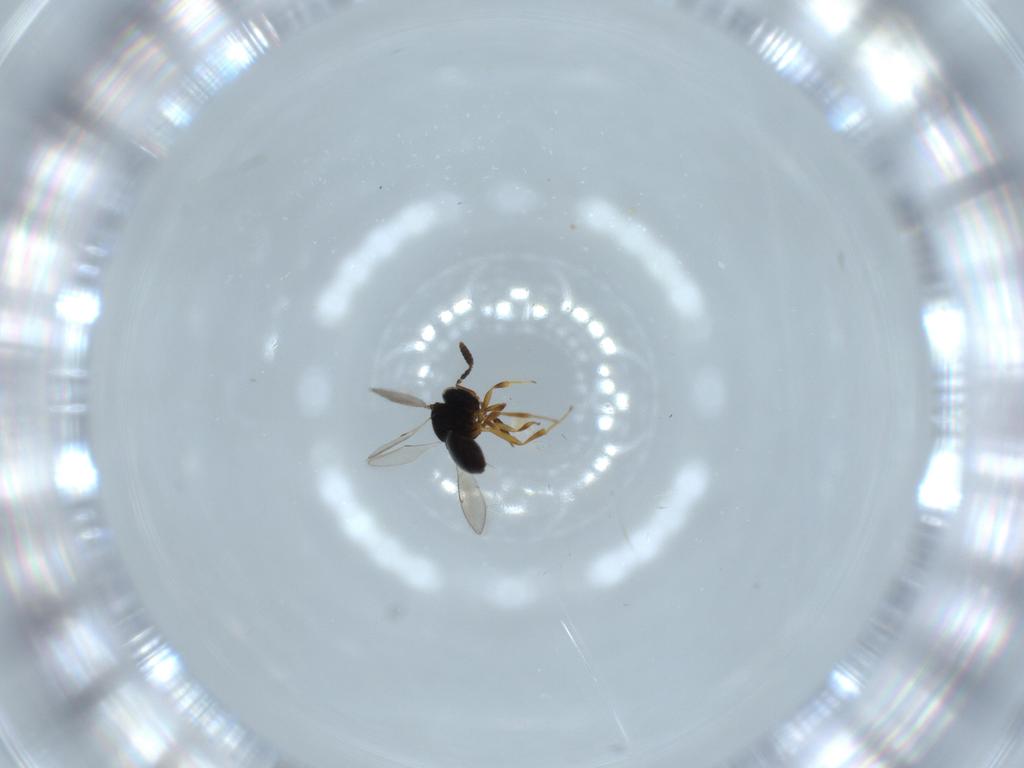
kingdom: Animalia
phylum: Arthropoda
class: Insecta
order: Hymenoptera
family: Scelionidae
